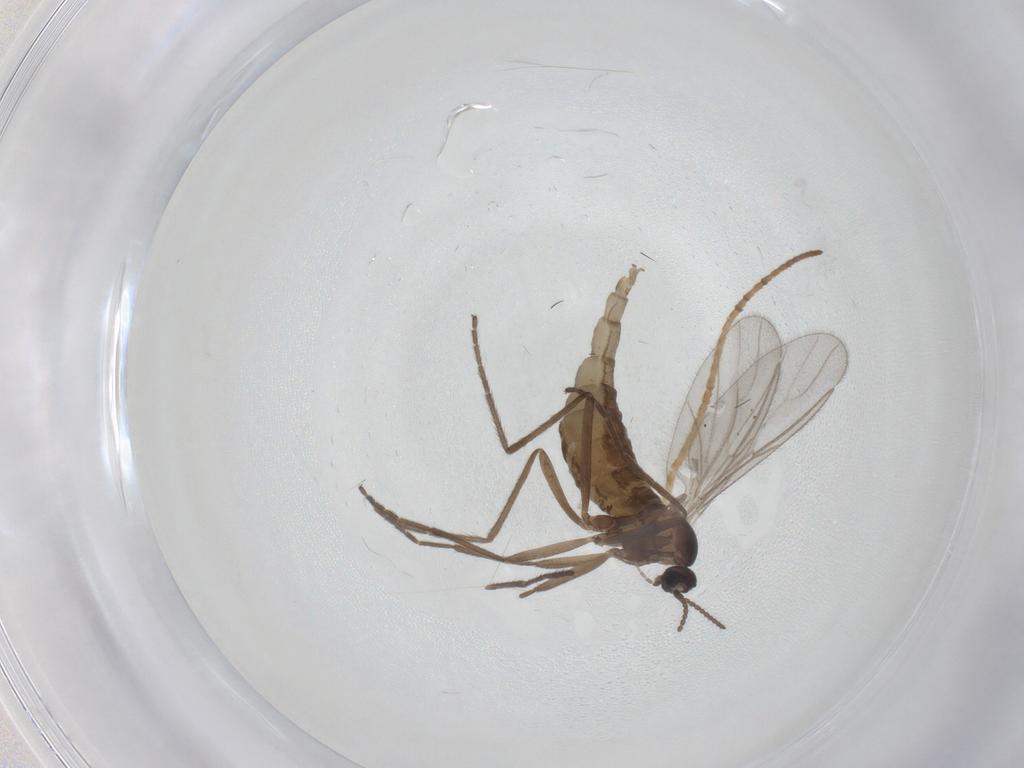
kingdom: Animalia
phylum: Arthropoda
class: Insecta
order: Diptera
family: Cecidomyiidae
